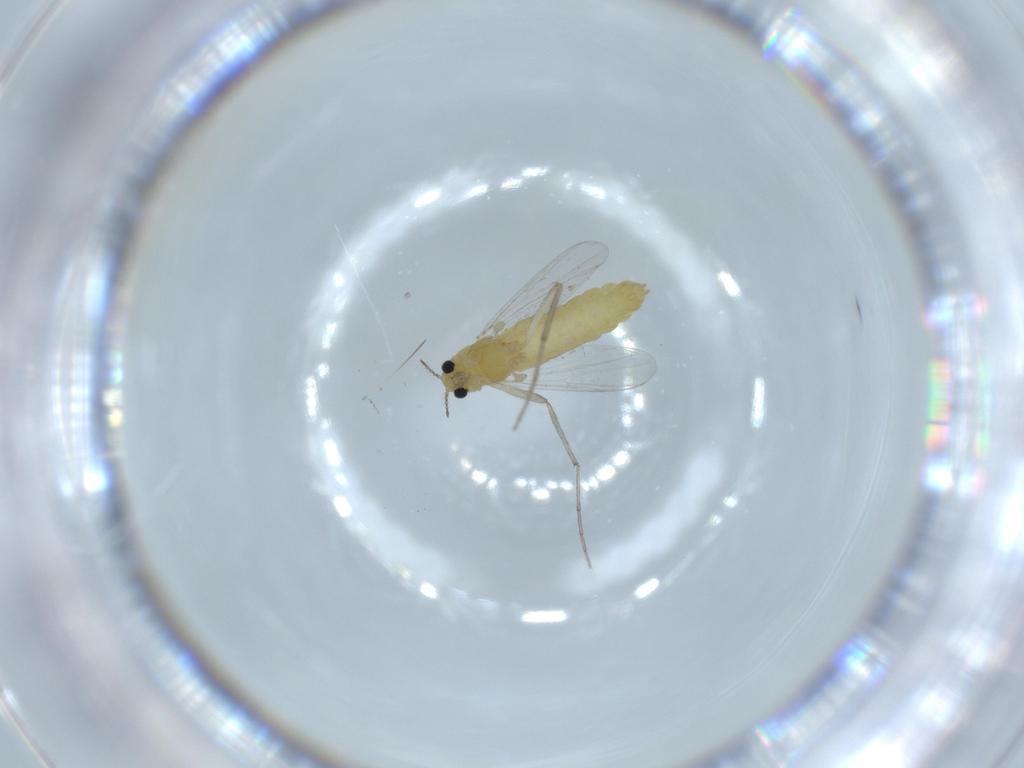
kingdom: Animalia
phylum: Arthropoda
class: Insecta
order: Diptera
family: Chironomidae
